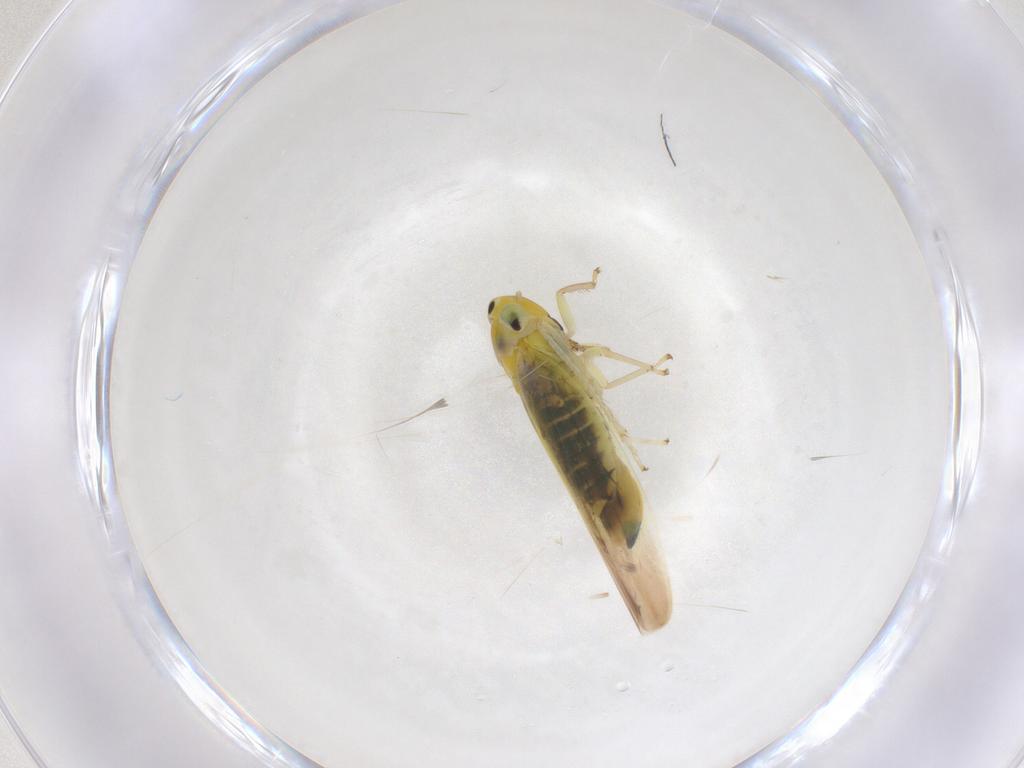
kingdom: Animalia
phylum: Arthropoda
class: Insecta
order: Hemiptera
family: Cicadellidae
